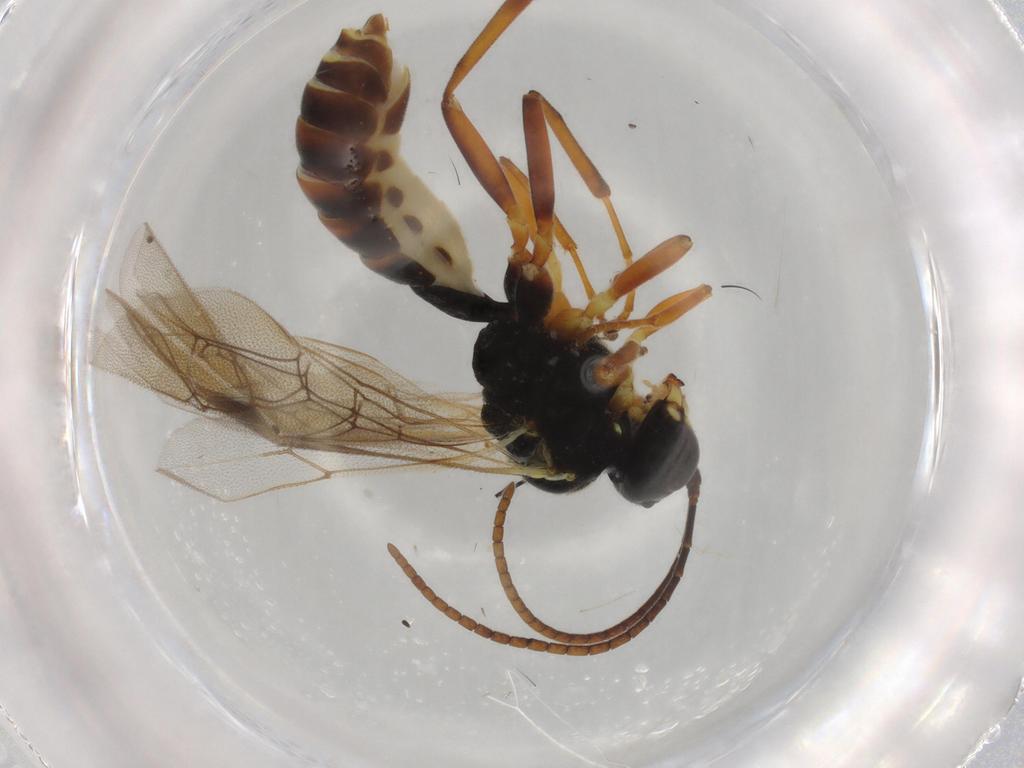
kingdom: Animalia
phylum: Arthropoda
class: Insecta
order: Hymenoptera
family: Ichneumonidae
